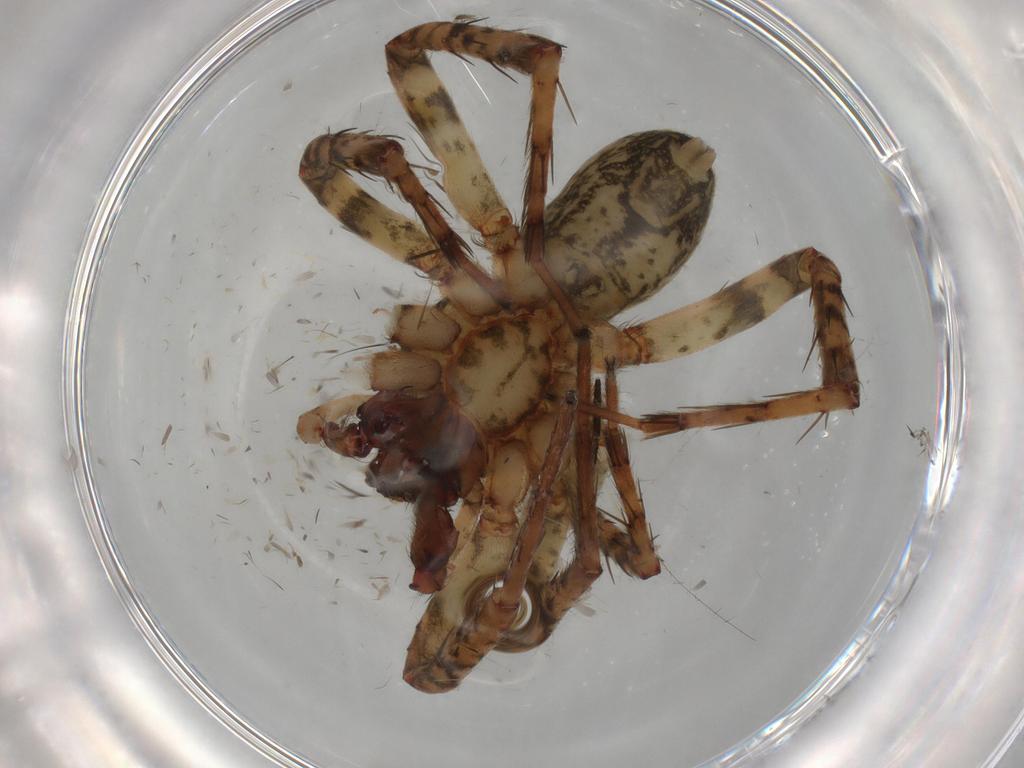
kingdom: Animalia
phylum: Arthropoda
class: Arachnida
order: Araneae
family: Anyphaenidae
